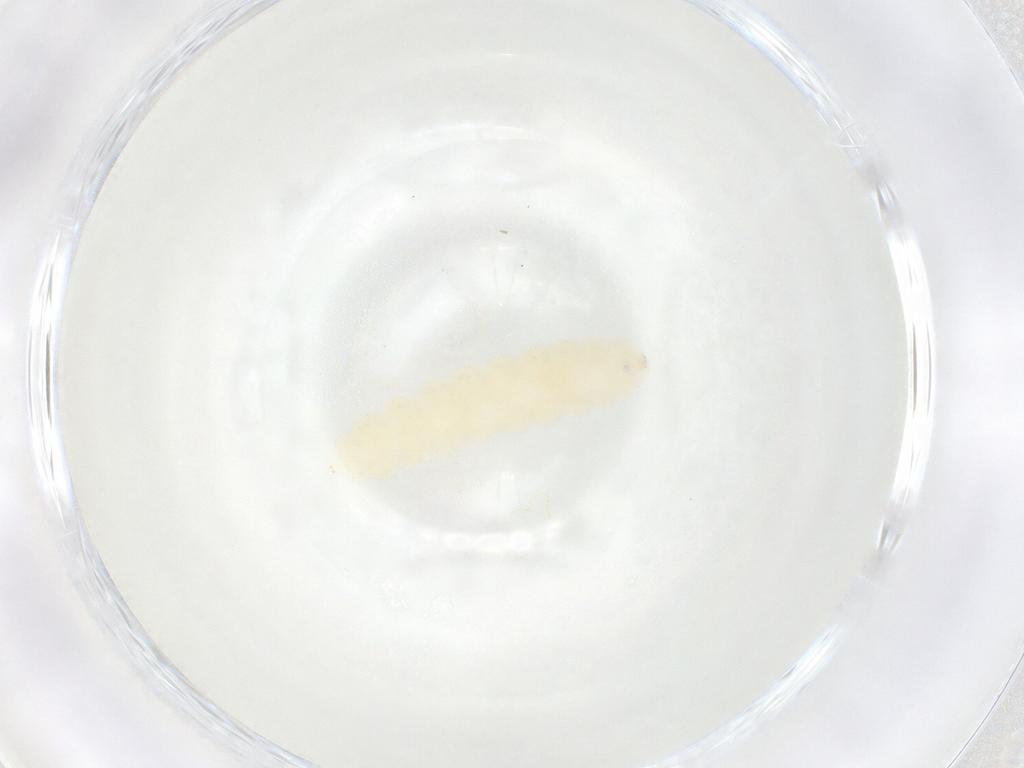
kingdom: Animalia
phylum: Arthropoda
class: Insecta
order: Diptera
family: Cecidomyiidae
